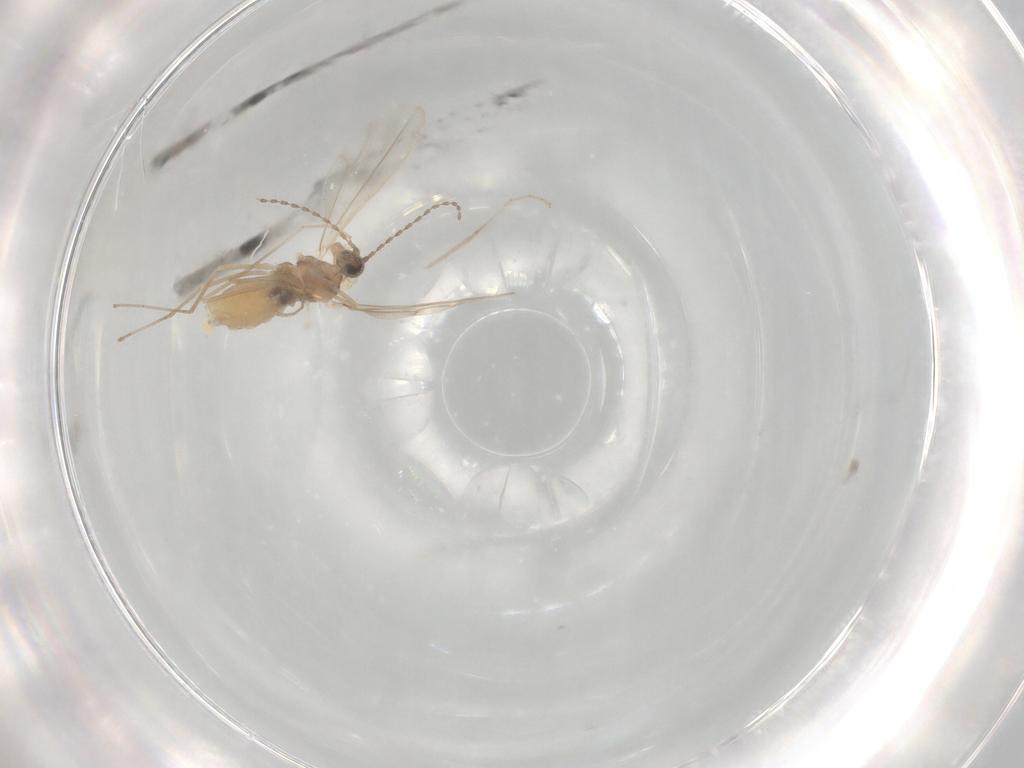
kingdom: Animalia
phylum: Arthropoda
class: Insecta
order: Diptera
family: Cecidomyiidae
